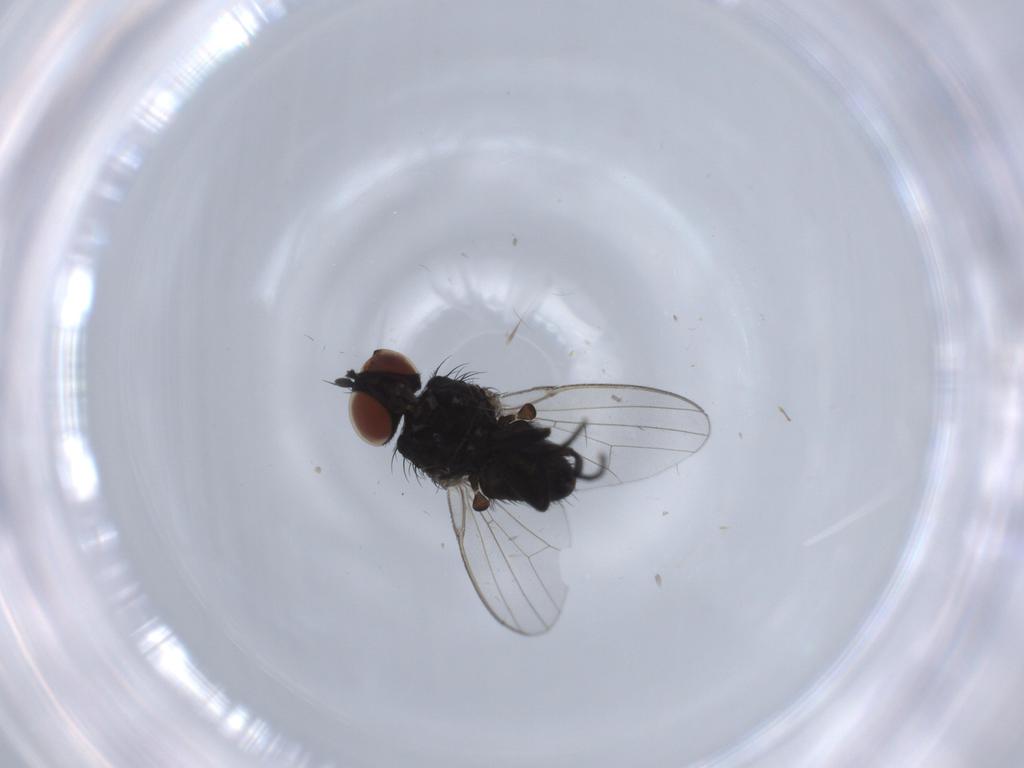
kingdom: Animalia
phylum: Arthropoda
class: Insecta
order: Diptera
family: Milichiidae
